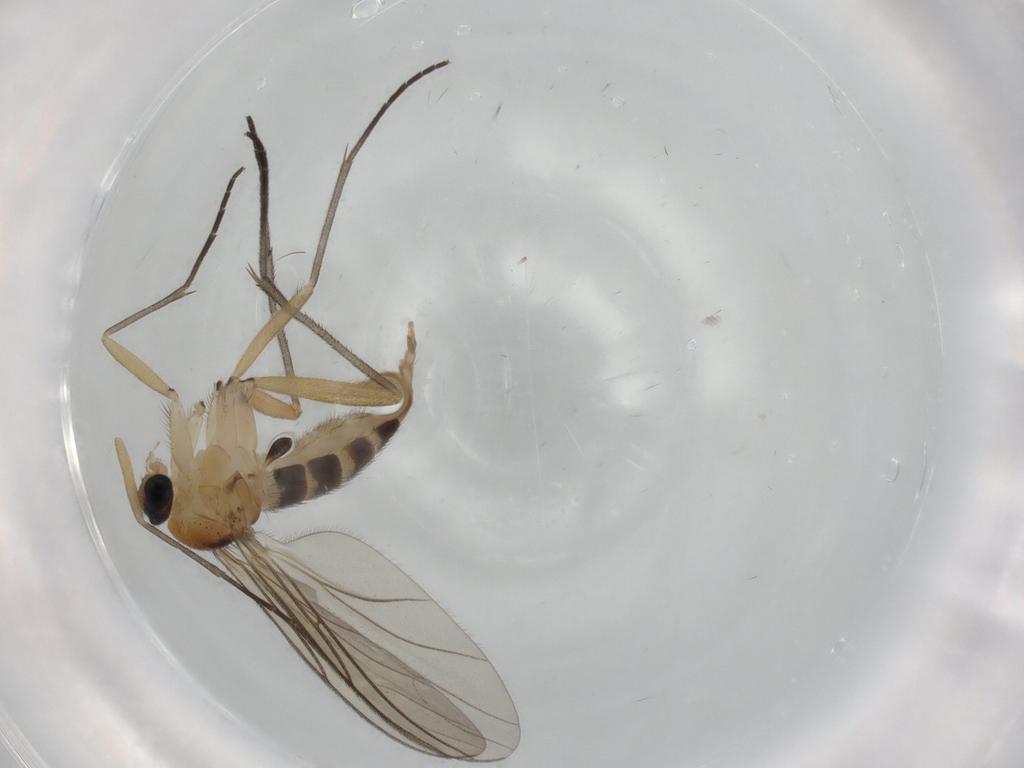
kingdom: Animalia
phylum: Arthropoda
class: Insecta
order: Diptera
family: Sciaridae
